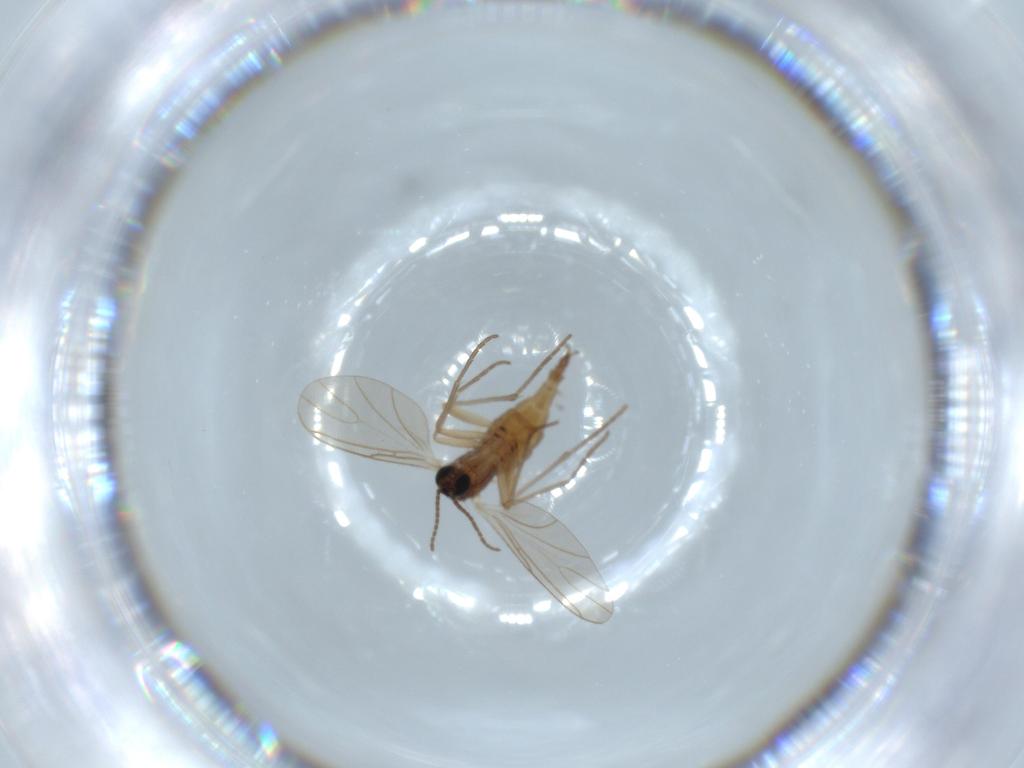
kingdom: Animalia
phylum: Arthropoda
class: Insecta
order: Diptera
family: Sciaridae
